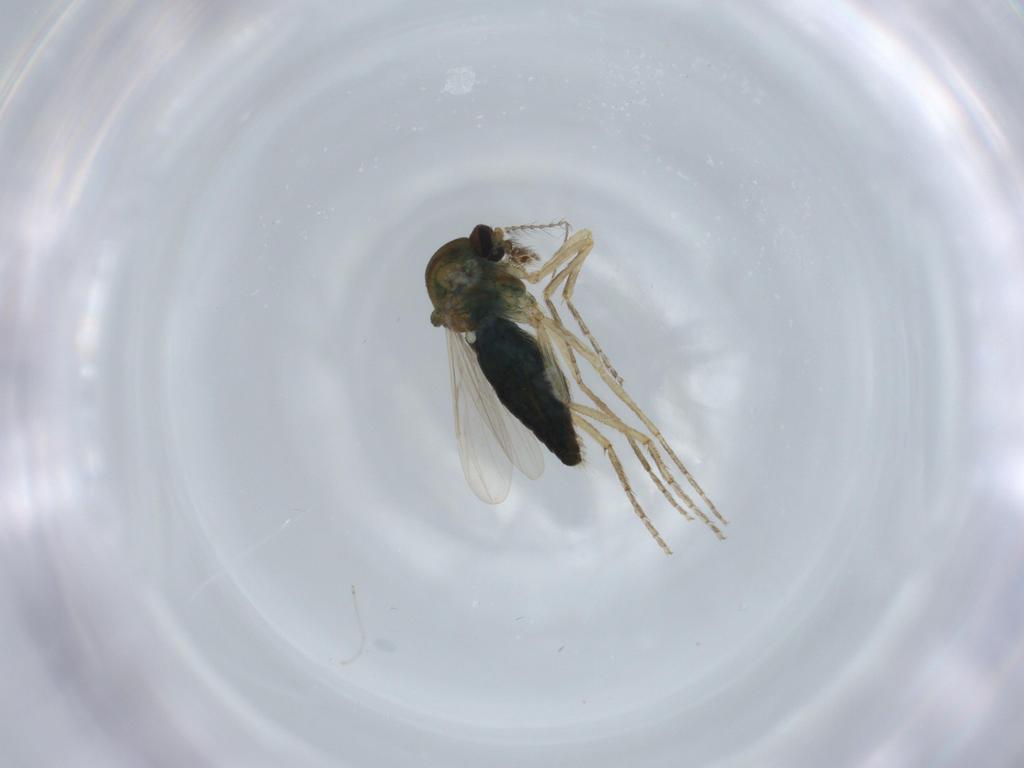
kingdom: Animalia
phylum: Arthropoda
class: Insecta
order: Diptera
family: Ceratopogonidae
